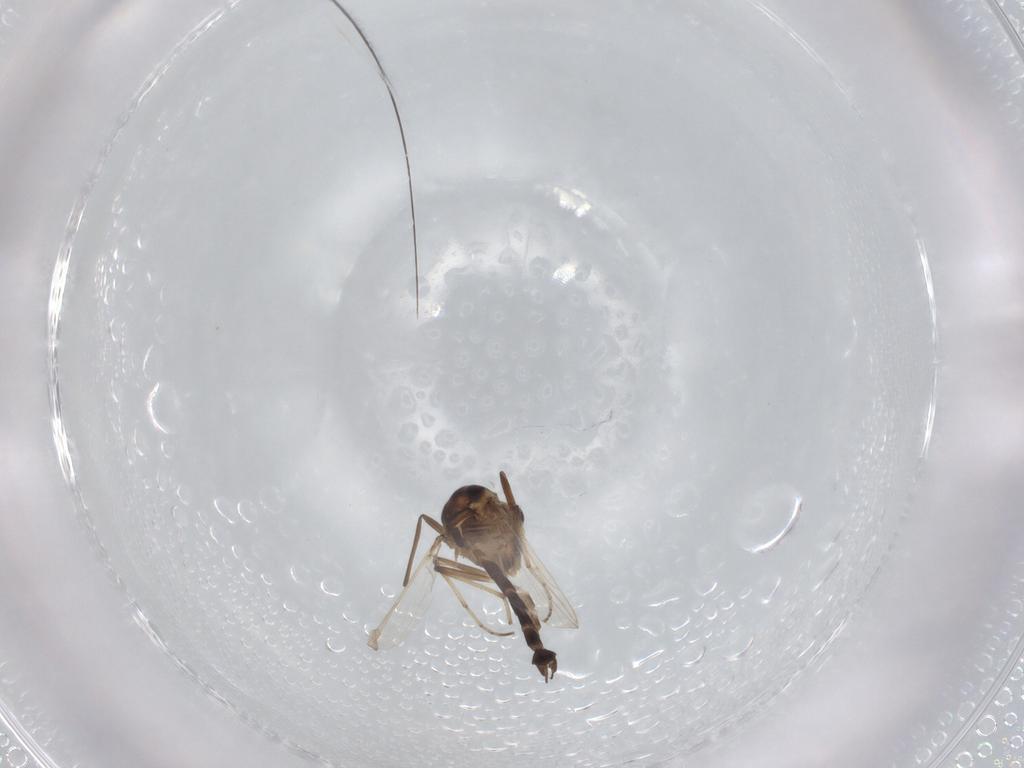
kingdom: Animalia
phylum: Arthropoda
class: Insecta
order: Diptera
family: Chironomidae
